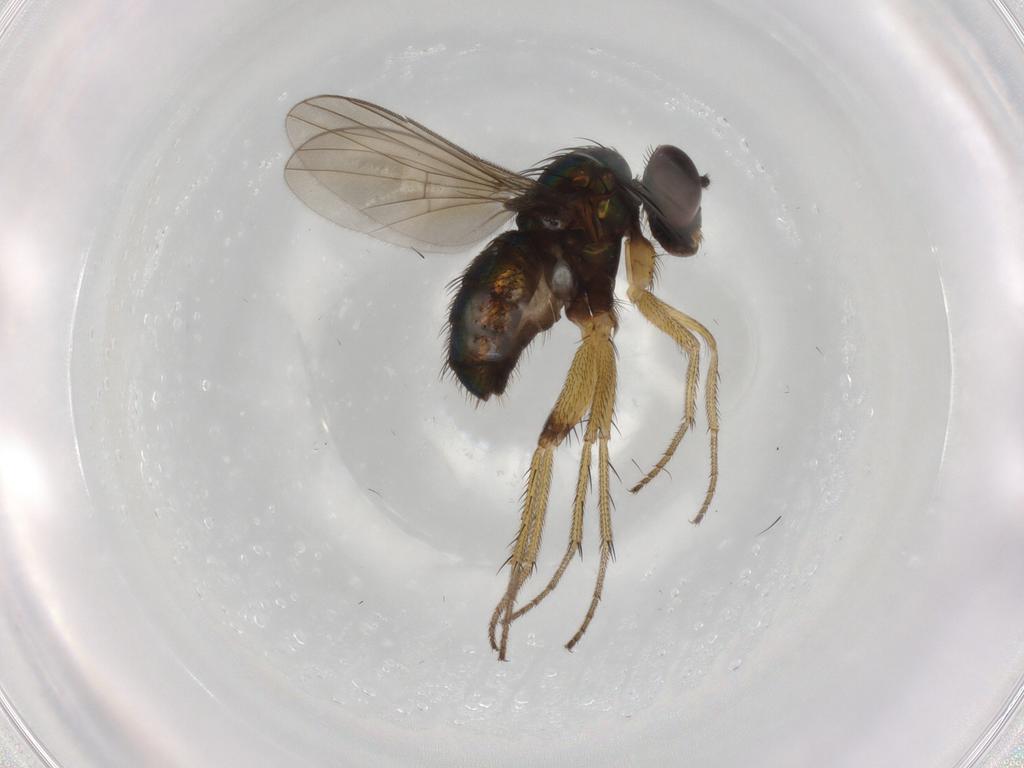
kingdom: Animalia
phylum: Arthropoda
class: Insecta
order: Diptera
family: Dolichopodidae
